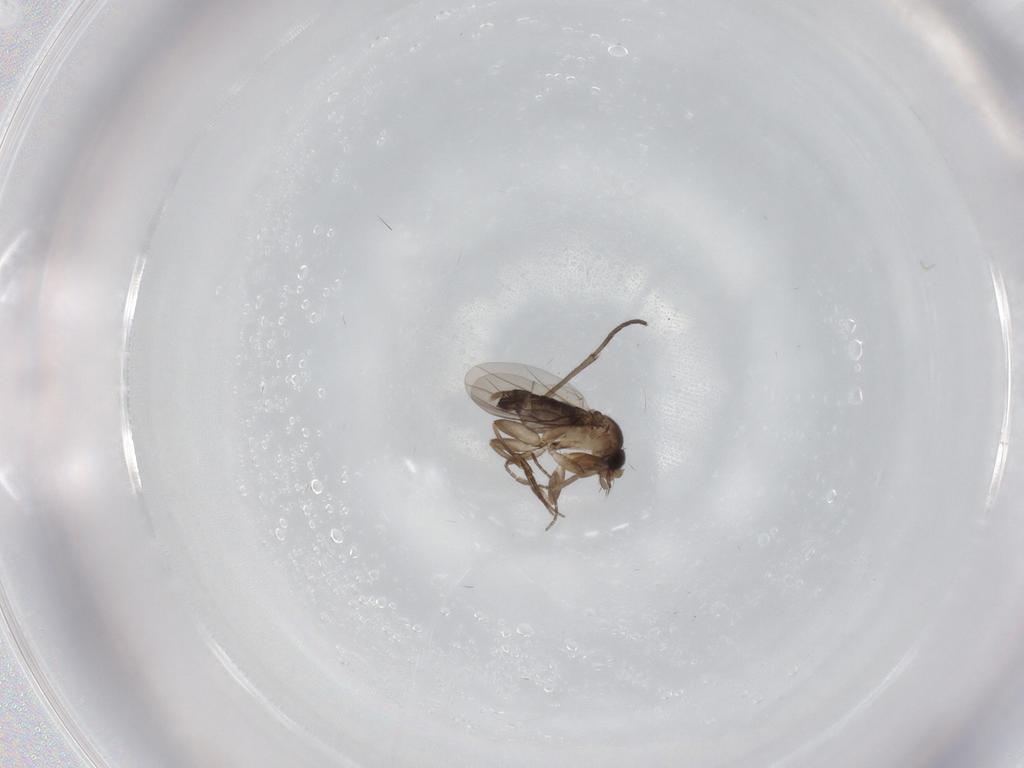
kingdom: Animalia
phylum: Arthropoda
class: Insecta
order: Diptera
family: Sciaridae
